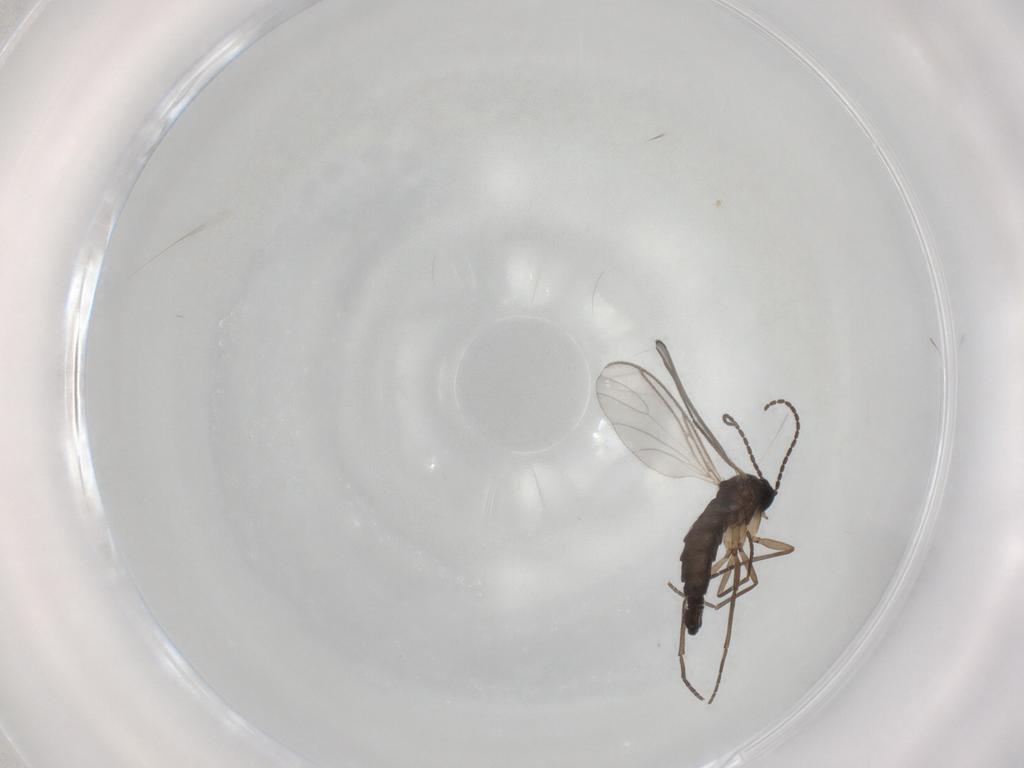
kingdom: Animalia
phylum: Arthropoda
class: Insecta
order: Diptera
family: Sciaridae
